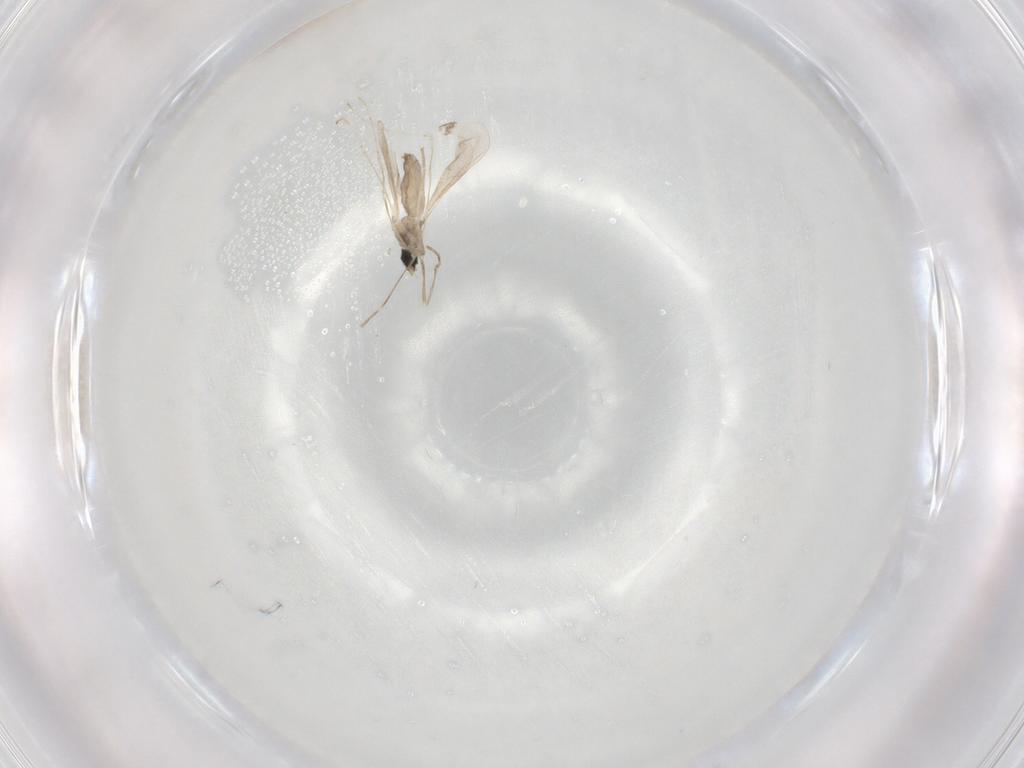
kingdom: Animalia
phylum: Arthropoda
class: Insecta
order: Diptera
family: Cecidomyiidae
